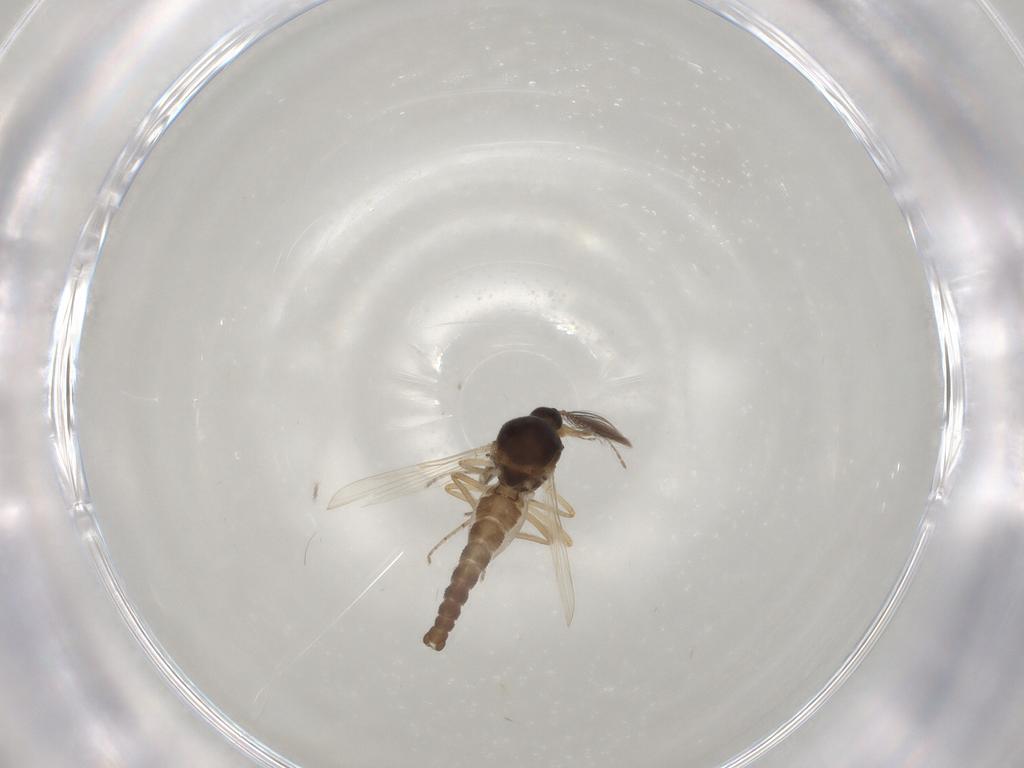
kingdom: Animalia
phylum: Arthropoda
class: Insecta
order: Diptera
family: Ceratopogonidae
